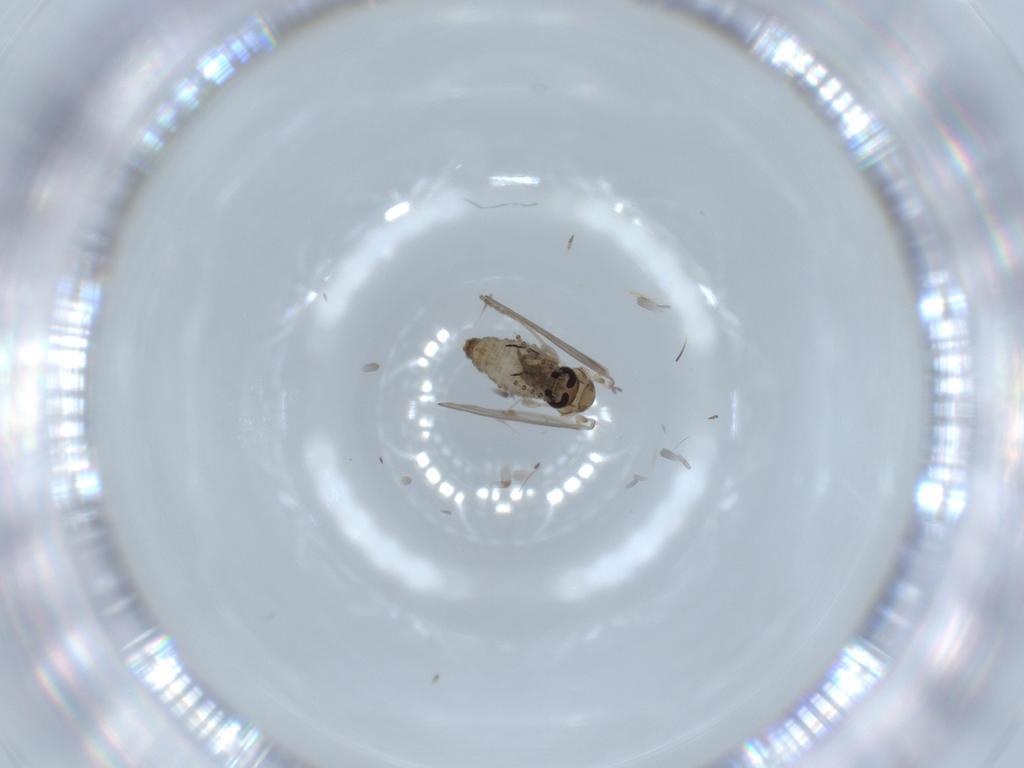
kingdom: Animalia
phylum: Arthropoda
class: Insecta
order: Diptera
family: Psychodidae
